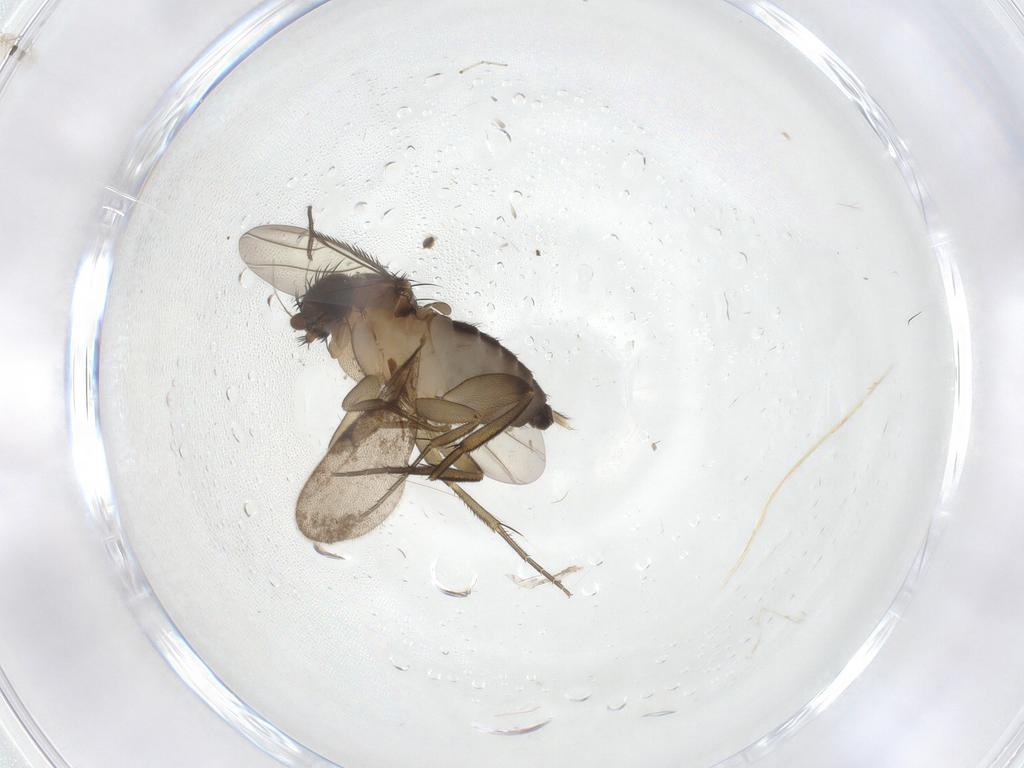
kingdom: Animalia
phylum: Arthropoda
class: Insecta
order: Diptera
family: Phoridae
